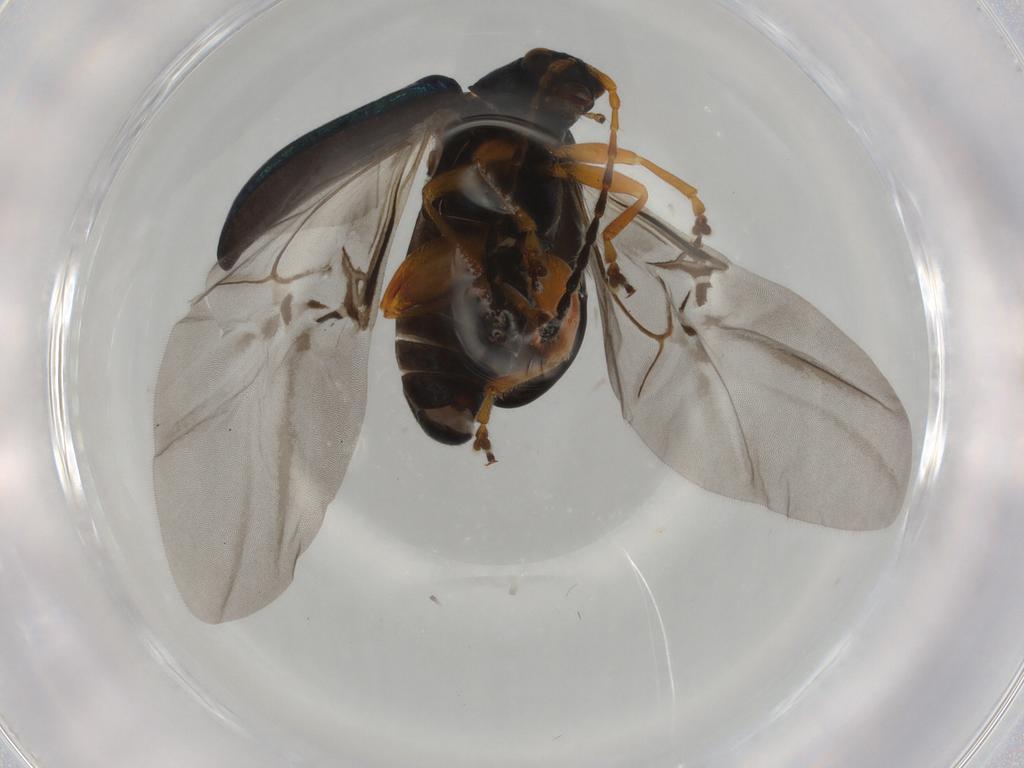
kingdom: Animalia
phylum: Arthropoda
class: Insecta
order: Coleoptera
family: Chrysomelidae
